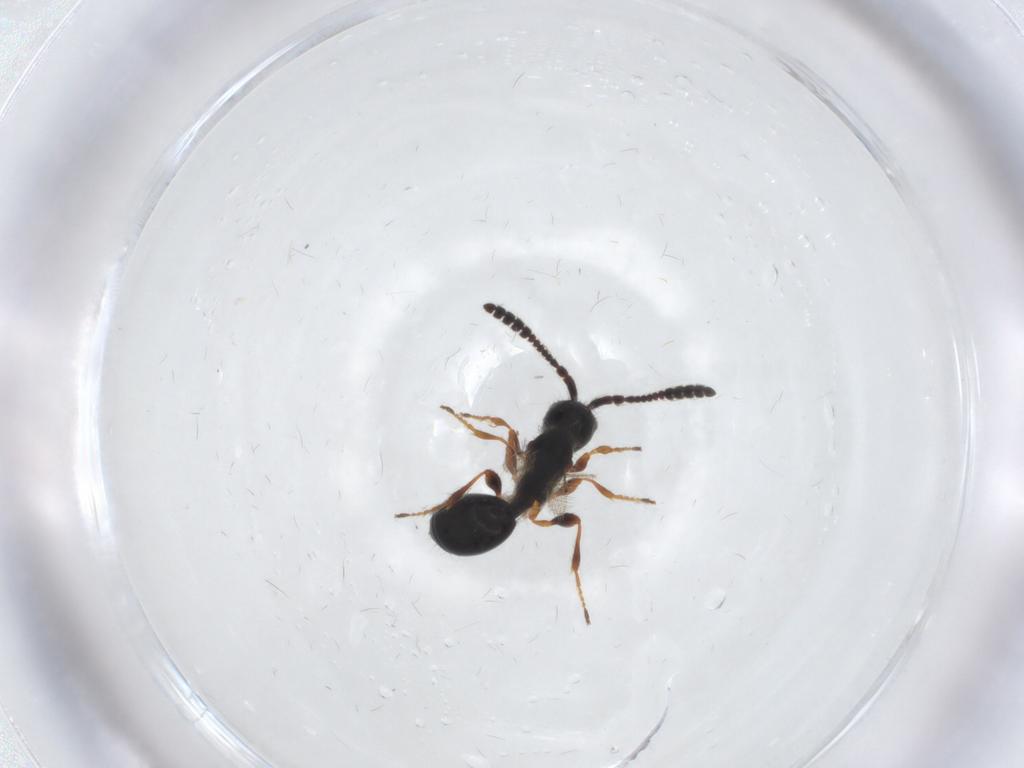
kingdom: Animalia
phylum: Arthropoda
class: Insecta
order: Hymenoptera
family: Diapriidae
